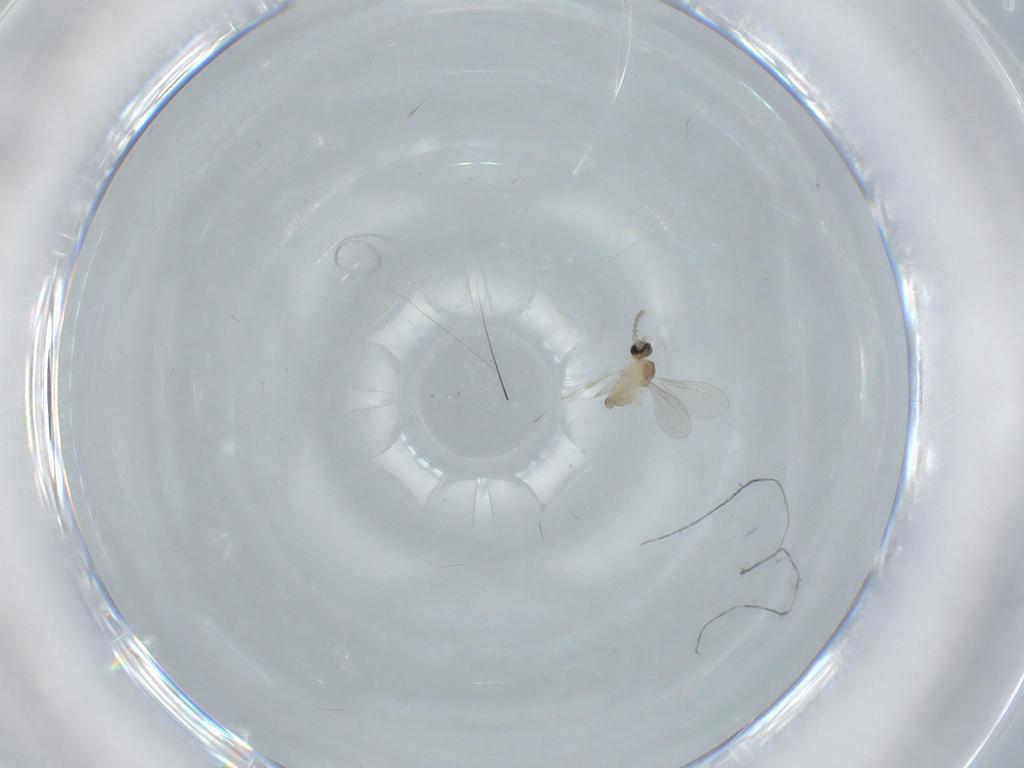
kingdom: Animalia
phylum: Arthropoda
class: Insecta
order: Diptera
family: Cecidomyiidae
